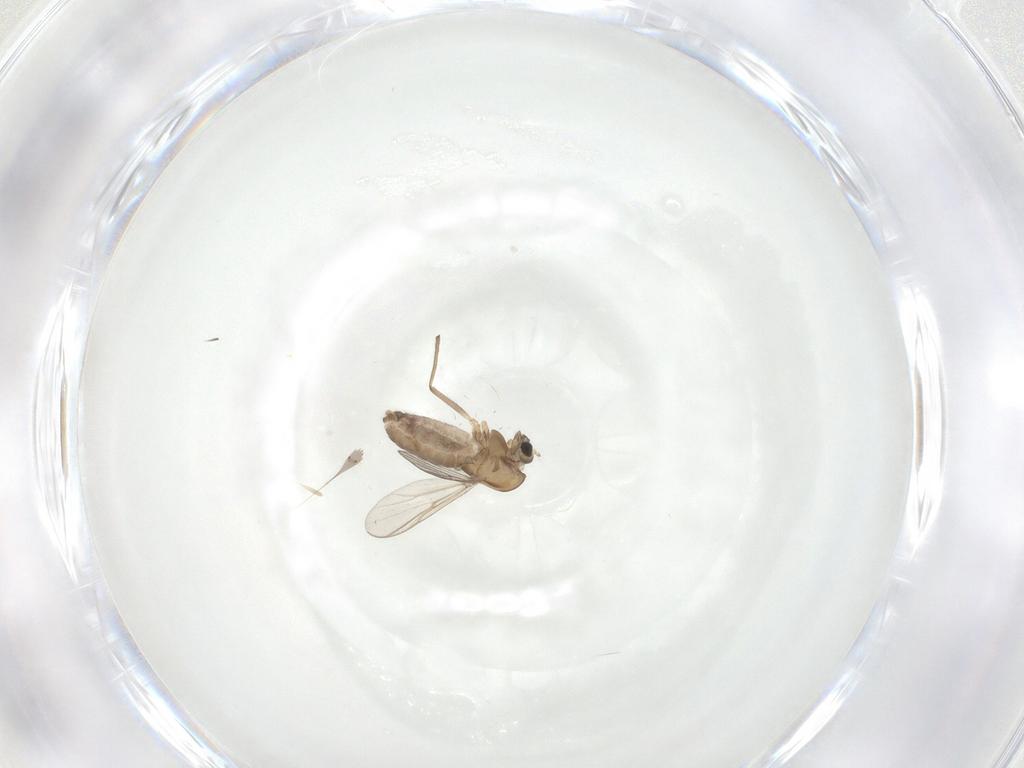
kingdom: Animalia
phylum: Arthropoda
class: Insecta
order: Diptera
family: Chironomidae
